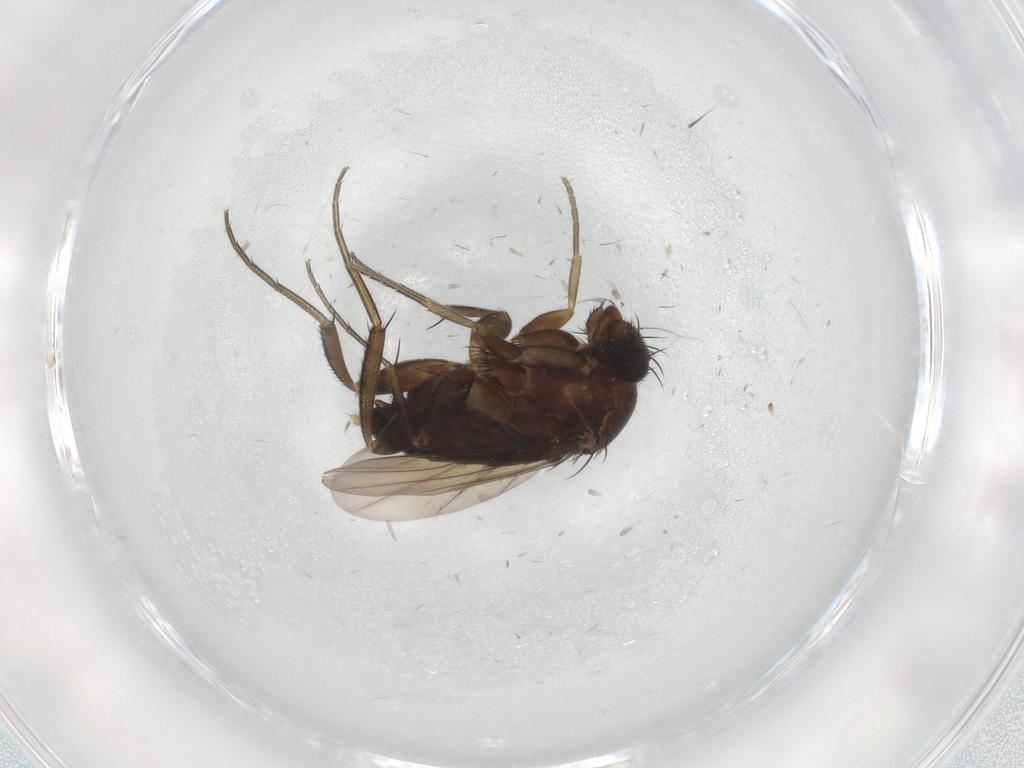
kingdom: Animalia
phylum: Arthropoda
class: Insecta
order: Diptera
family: Phoridae
